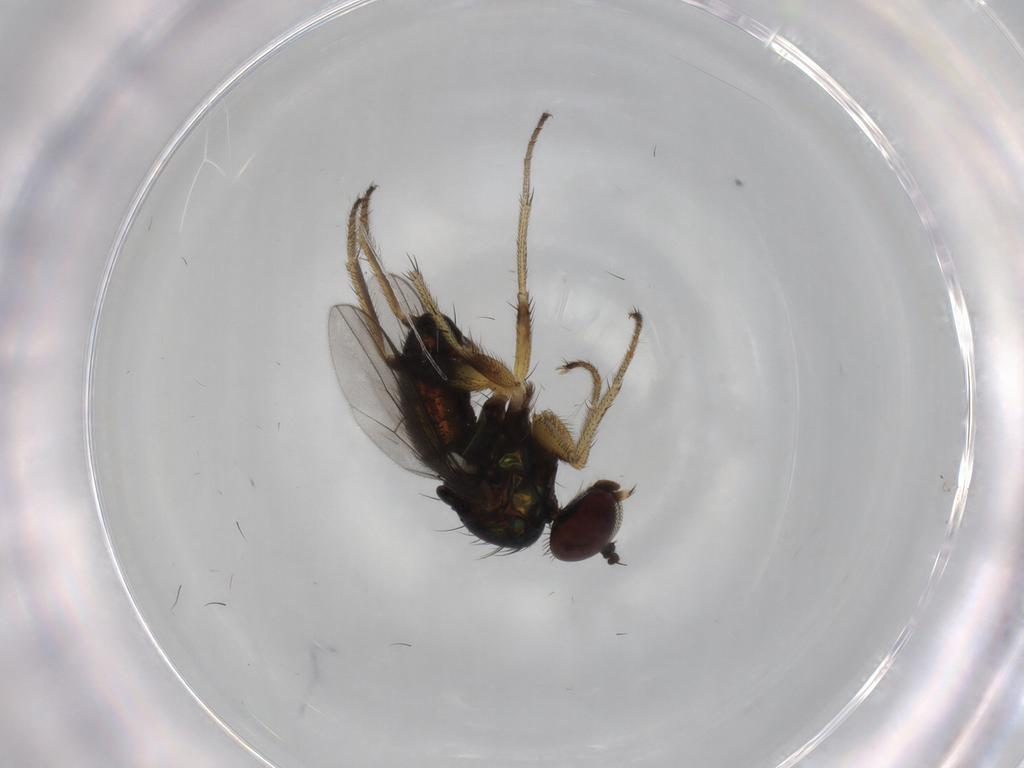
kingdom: Animalia
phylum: Arthropoda
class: Insecta
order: Diptera
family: Dolichopodidae
